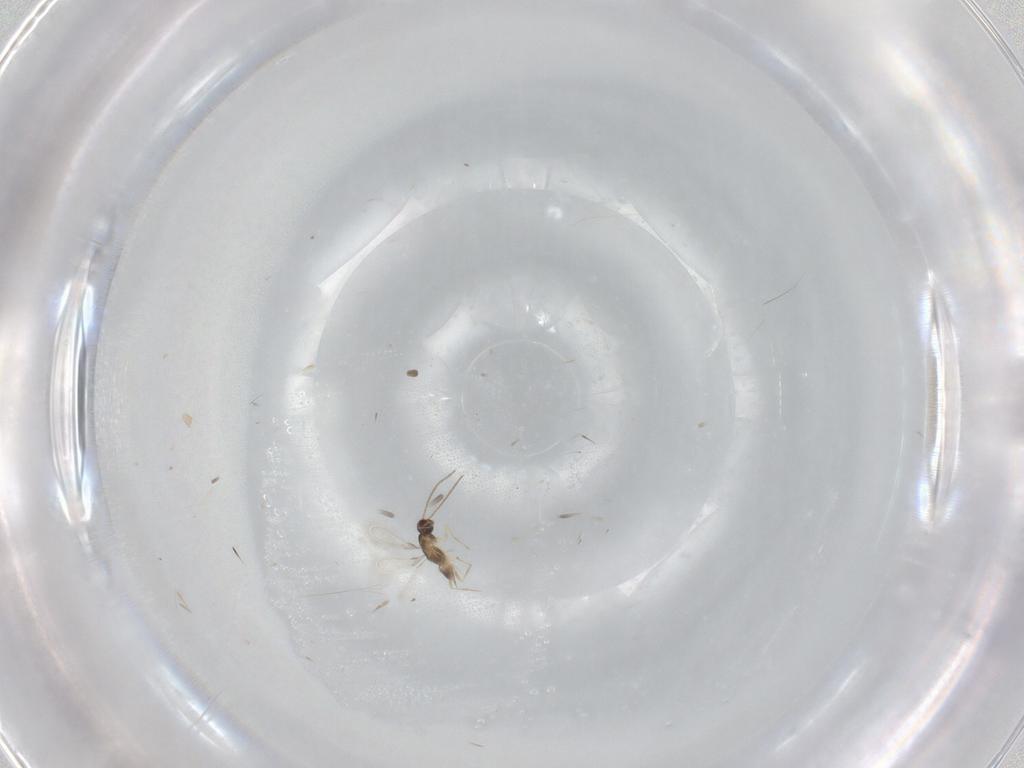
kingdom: Animalia
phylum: Arthropoda
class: Insecta
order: Hymenoptera
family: Mymaridae
